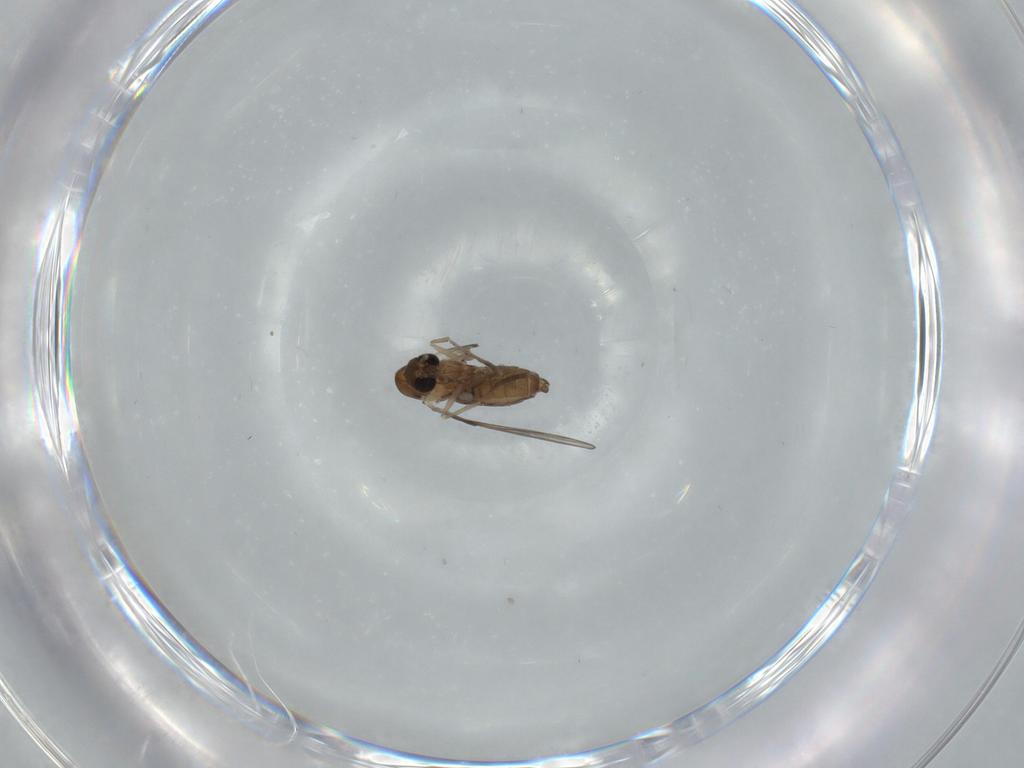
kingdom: Animalia
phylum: Arthropoda
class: Insecta
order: Diptera
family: Psychodidae
